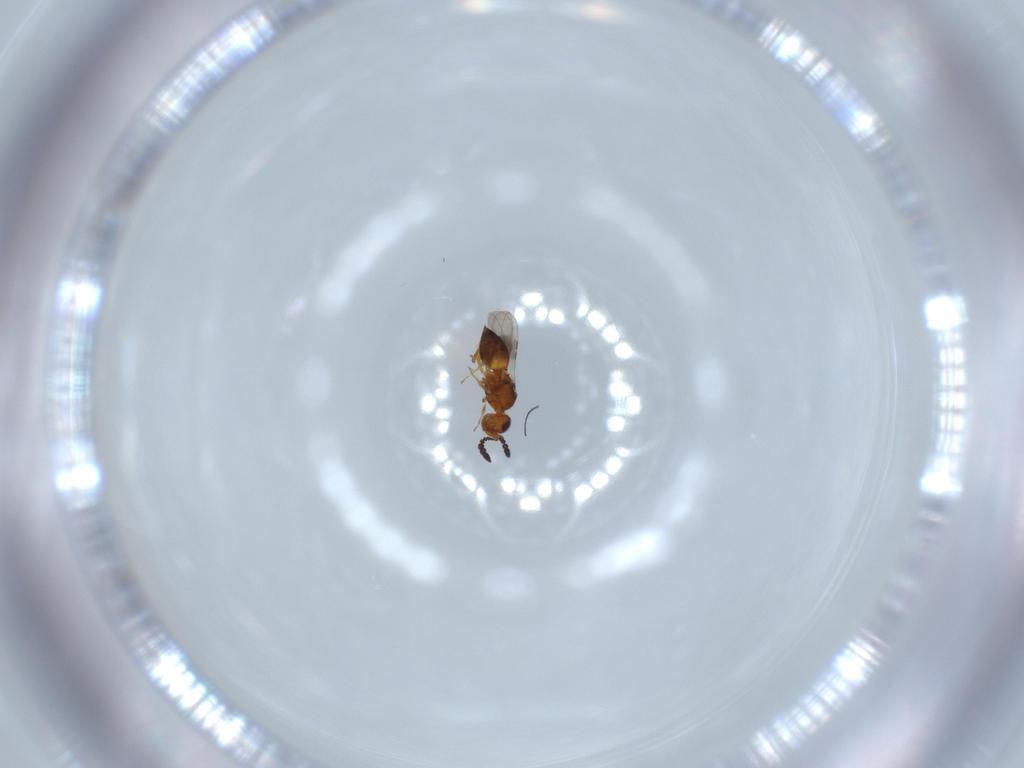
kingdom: Animalia
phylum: Arthropoda
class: Insecta
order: Hymenoptera
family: Ceraphronidae
